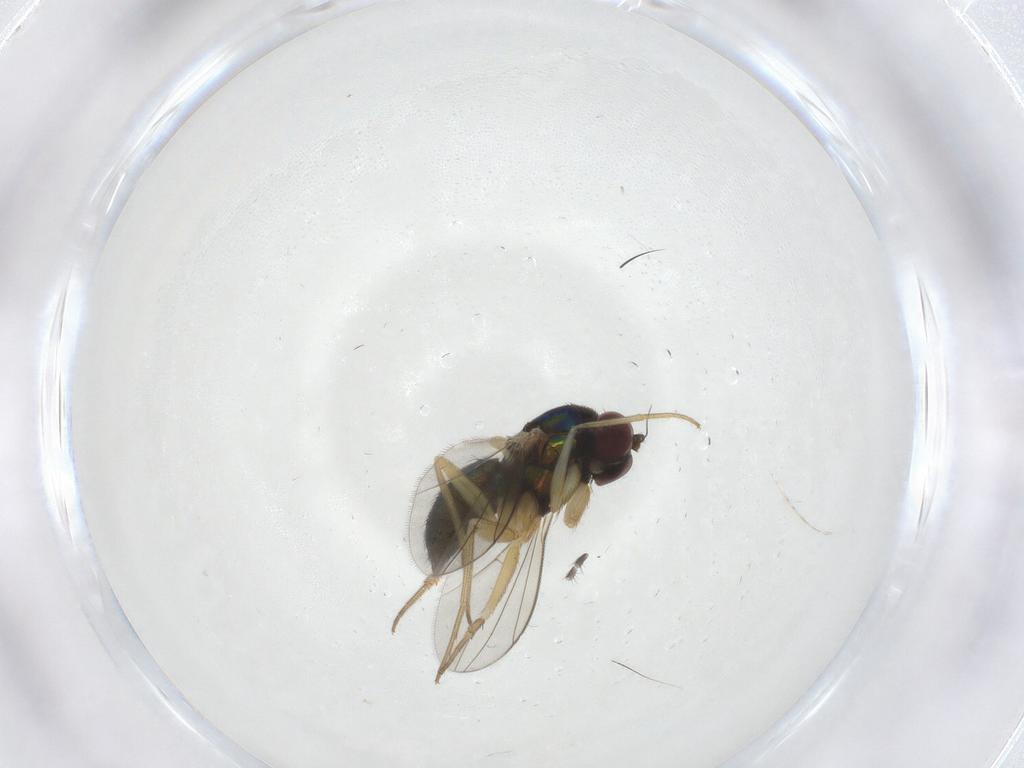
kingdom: Animalia
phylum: Arthropoda
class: Insecta
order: Diptera
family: Dolichopodidae
